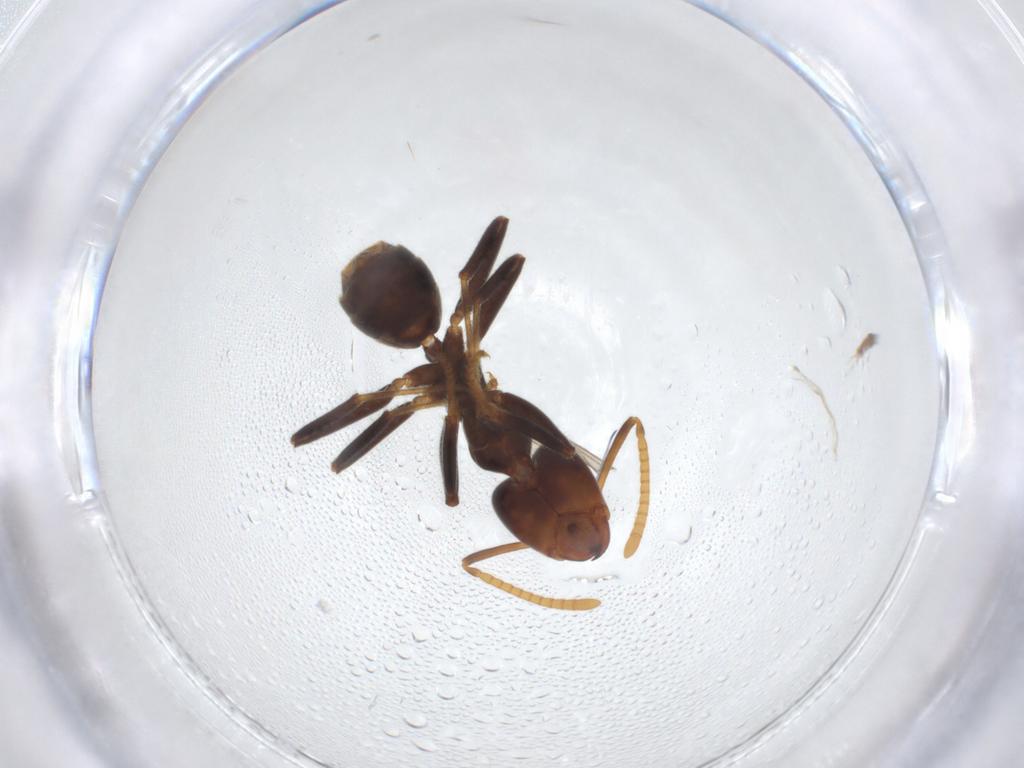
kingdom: Animalia
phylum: Arthropoda
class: Insecta
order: Hymenoptera
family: Formicidae
